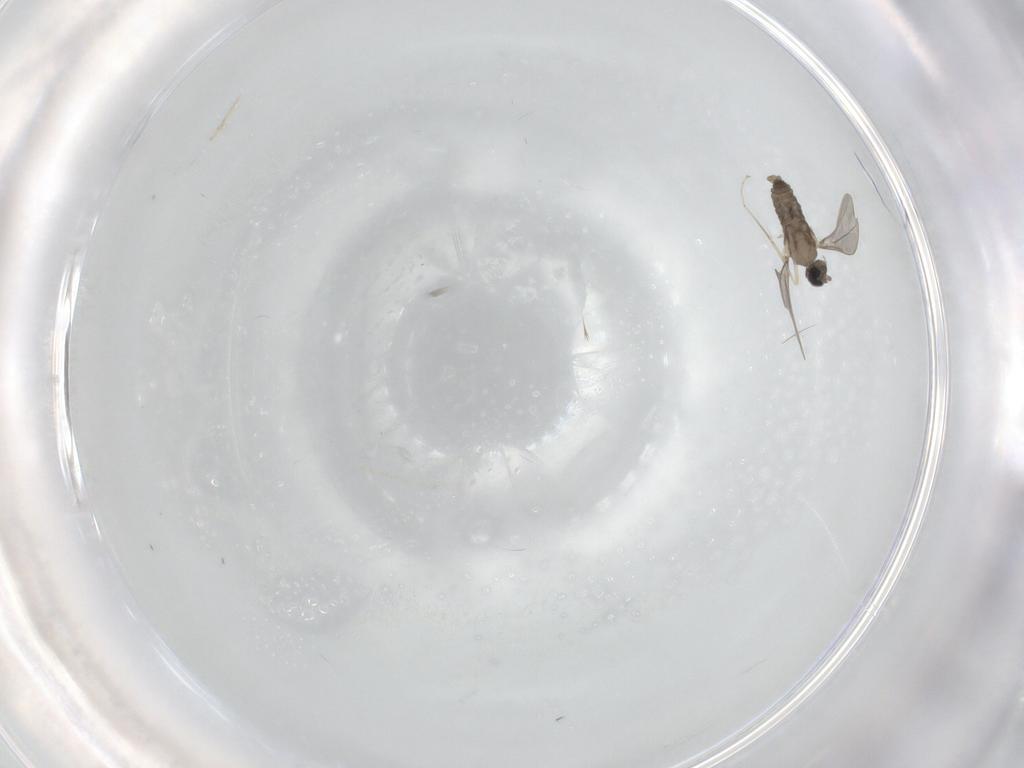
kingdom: Animalia
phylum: Arthropoda
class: Insecta
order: Diptera
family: Cecidomyiidae
